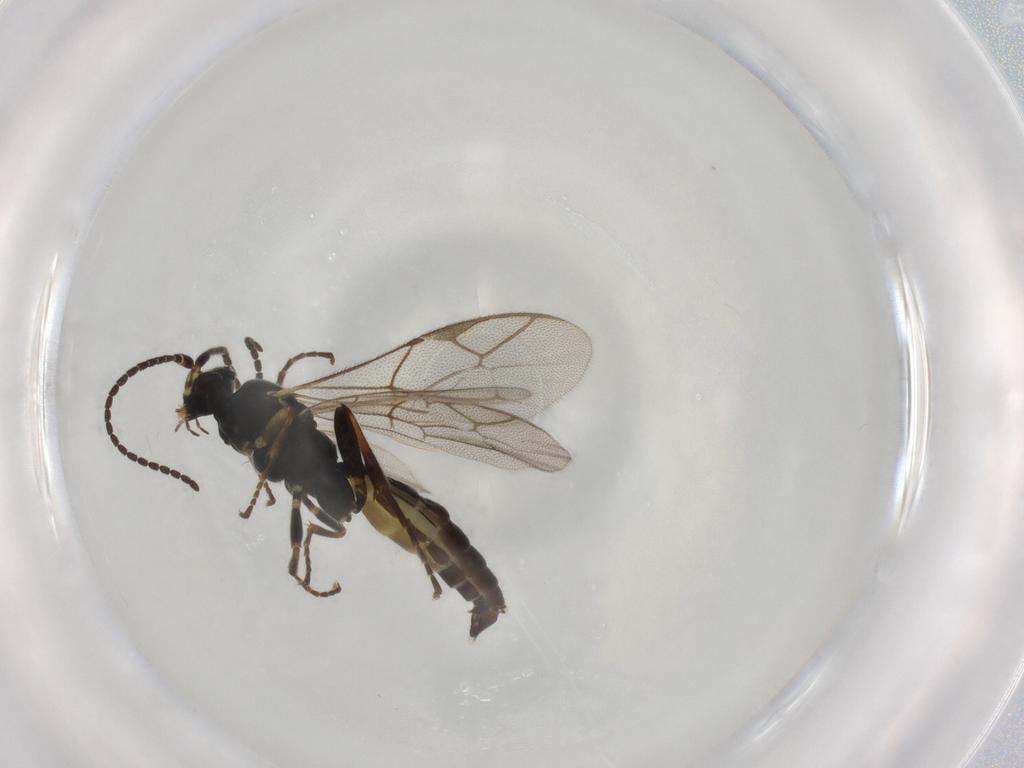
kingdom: Animalia
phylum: Arthropoda
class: Insecta
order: Hymenoptera
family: Ichneumonidae
